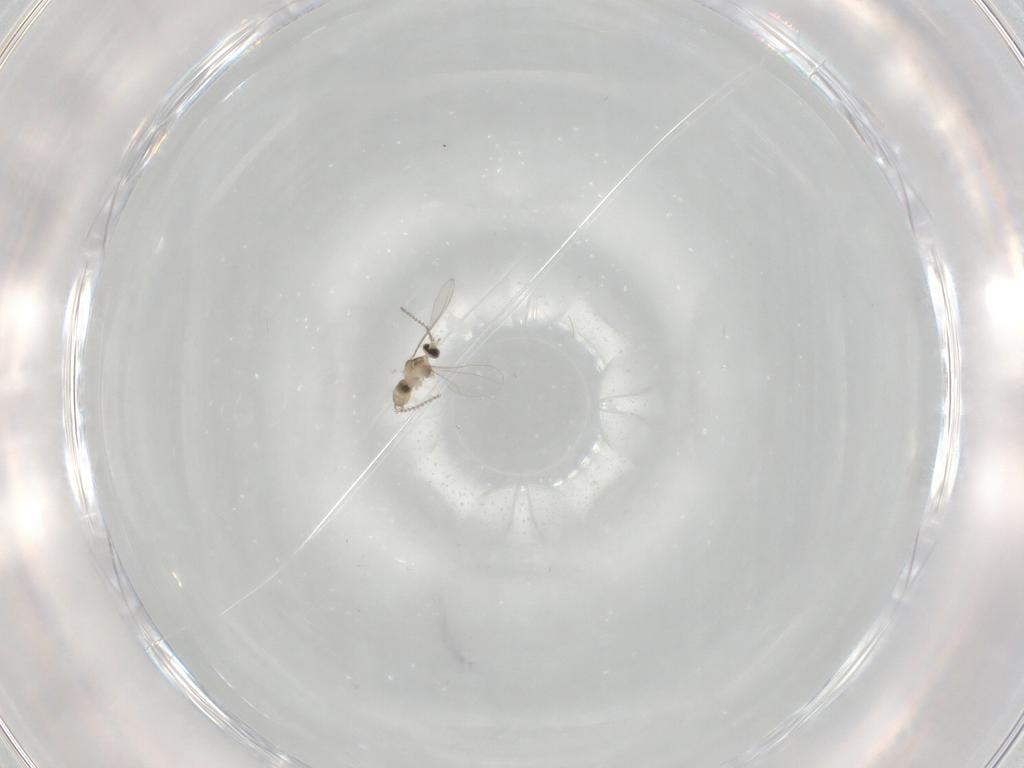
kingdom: Animalia
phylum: Arthropoda
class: Insecta
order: Diptera
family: Cecidomyiidae
